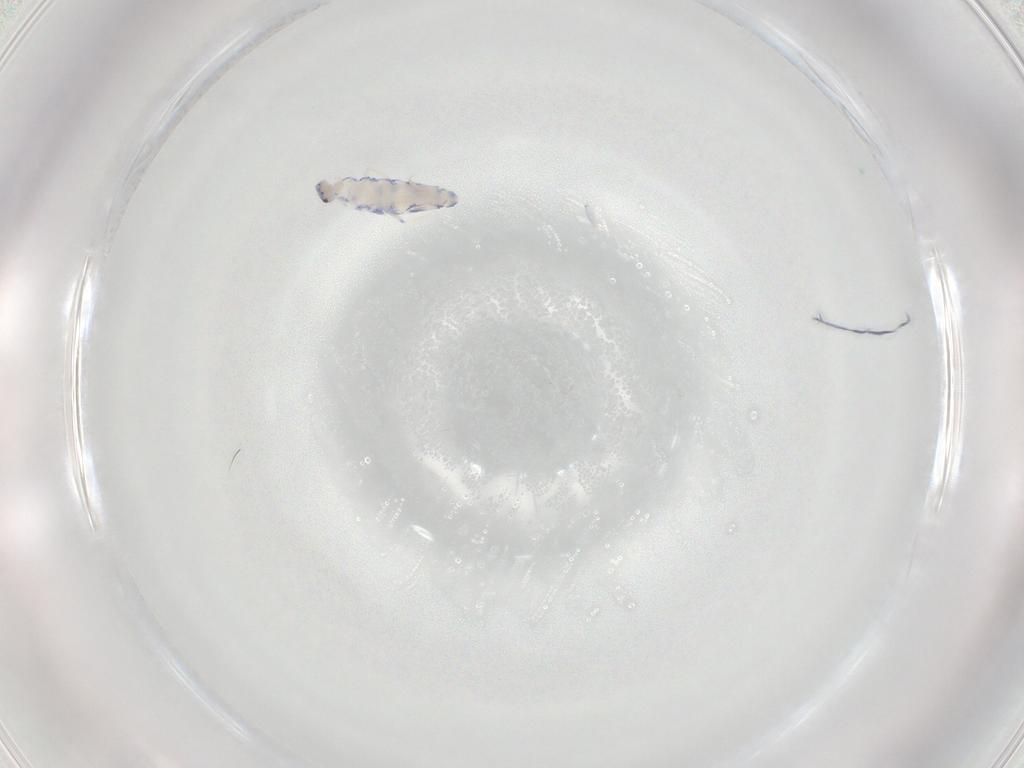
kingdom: Animalia
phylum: Arthropoda
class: Collembola
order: Entomobryomorpha
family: Entomobryidae
